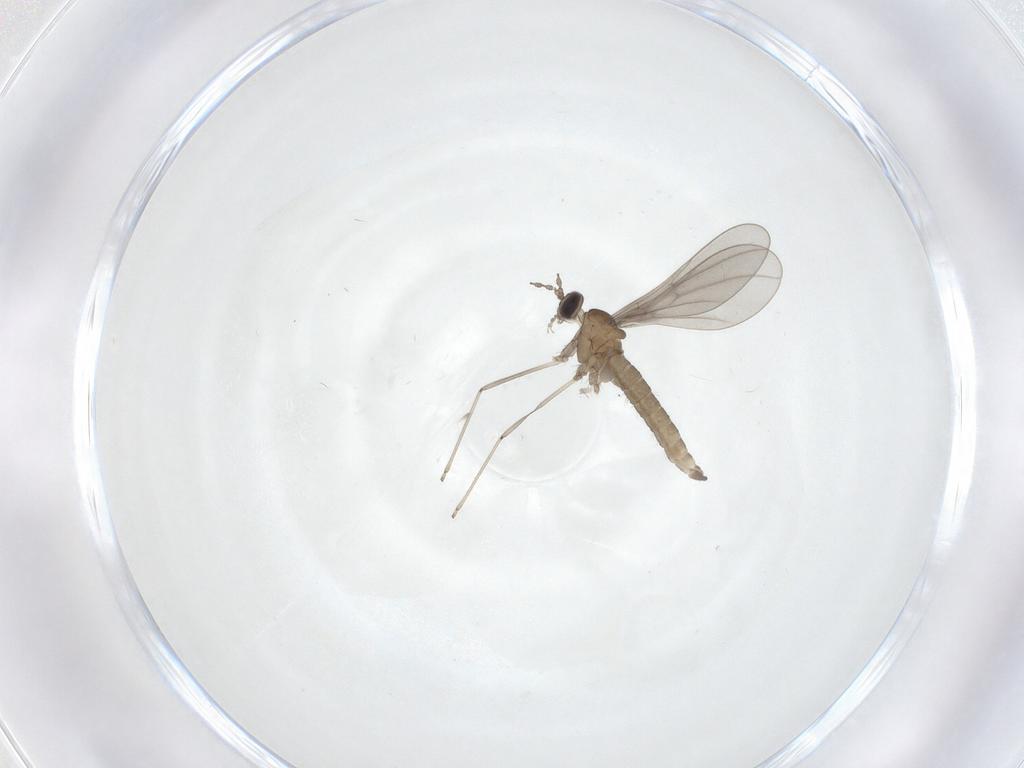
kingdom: Animalia
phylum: Arthropoda
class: Insecta
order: Diptera
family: Cecidomyiidae
